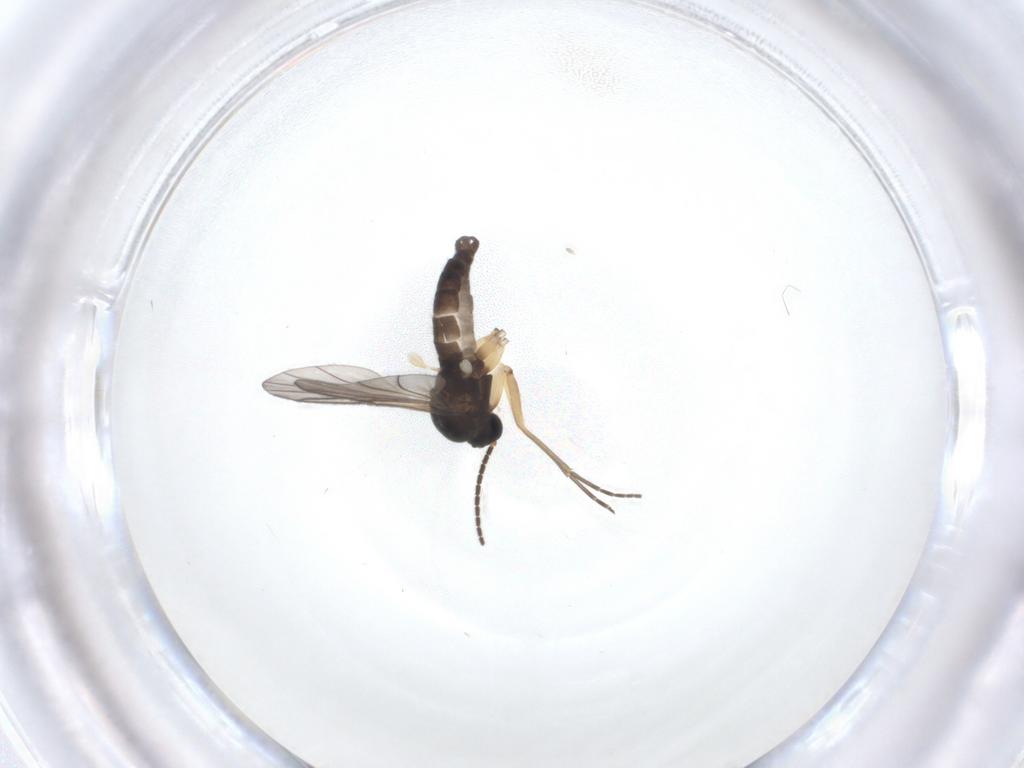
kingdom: Animalia
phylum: Arthropoda
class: Insecta
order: Diptera
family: Sciaridae
